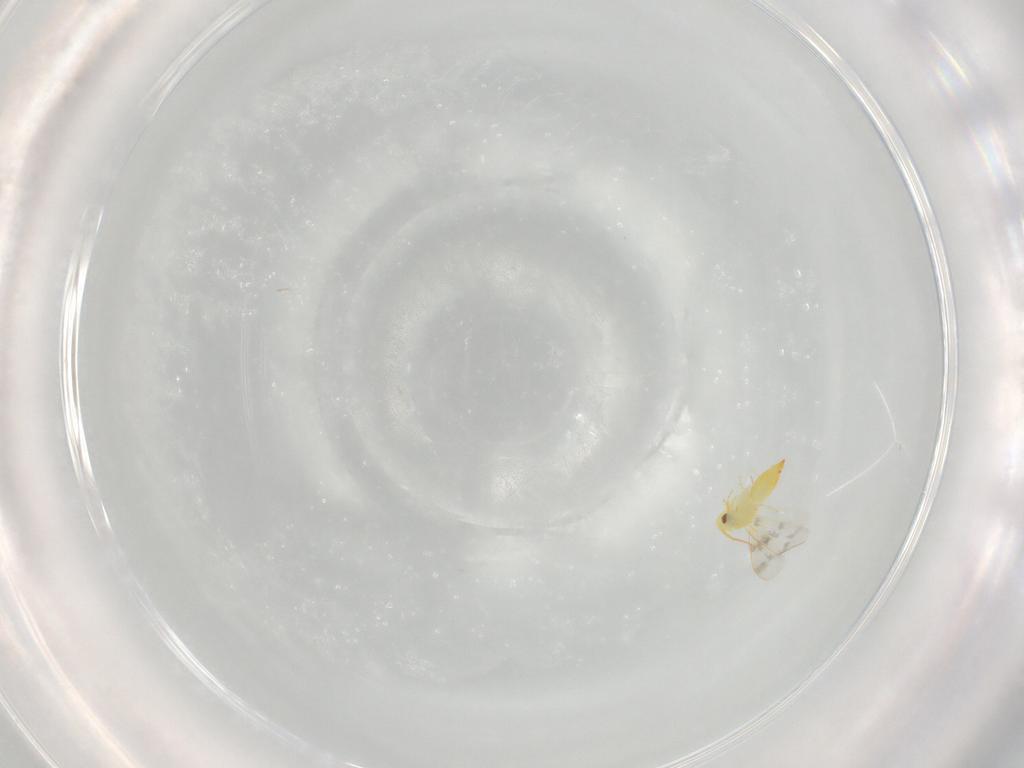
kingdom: Animalia
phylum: Arthropoda
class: Insecta
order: Hemiptera
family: Aleyrodidae
